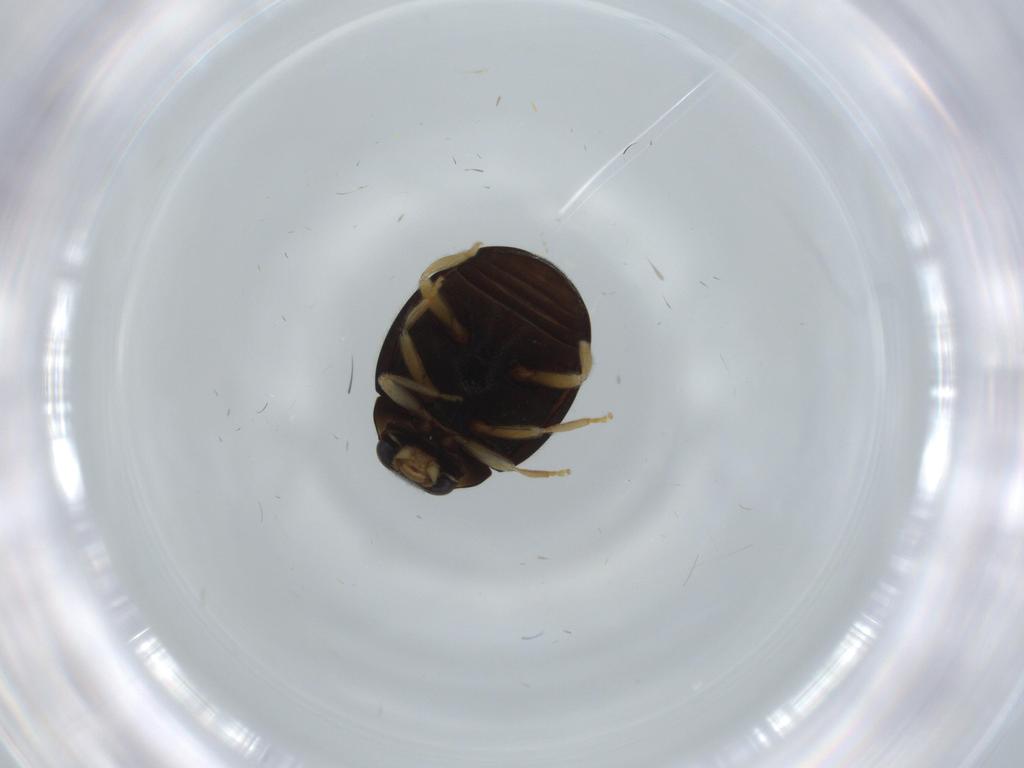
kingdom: Animalia
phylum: Arthropoda
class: Insecta
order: Coleoptera
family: Coccinellidae
